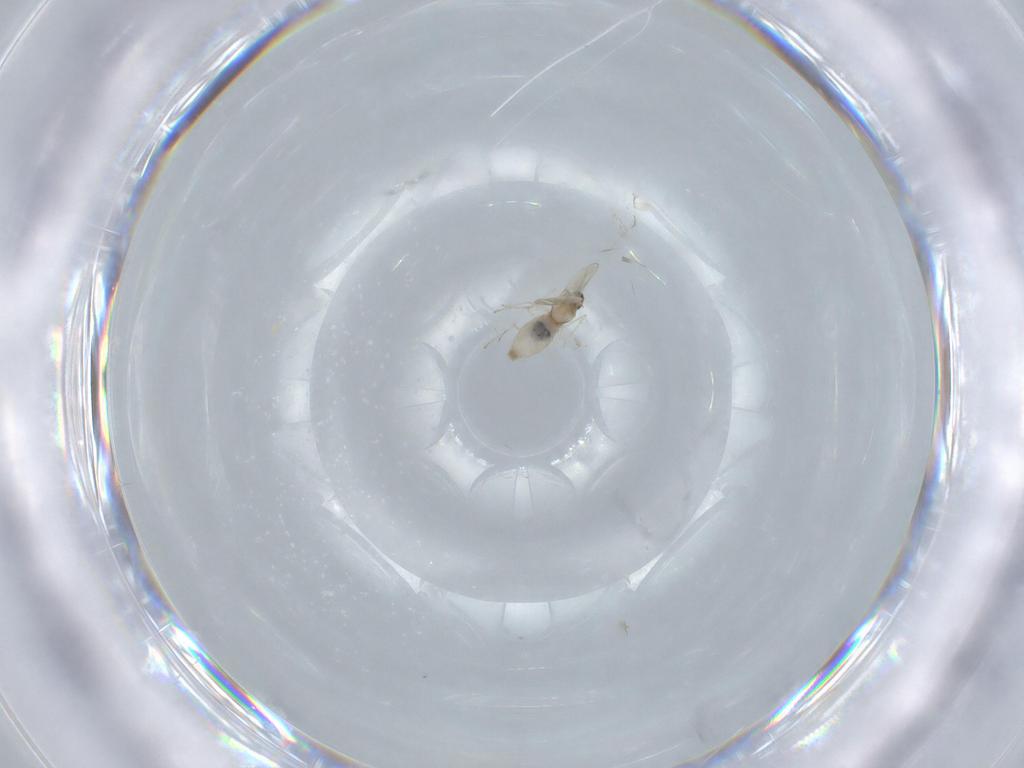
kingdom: Animalia
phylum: Arthropoda
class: Insecta
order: Diptera
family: Cecidomyiidae
